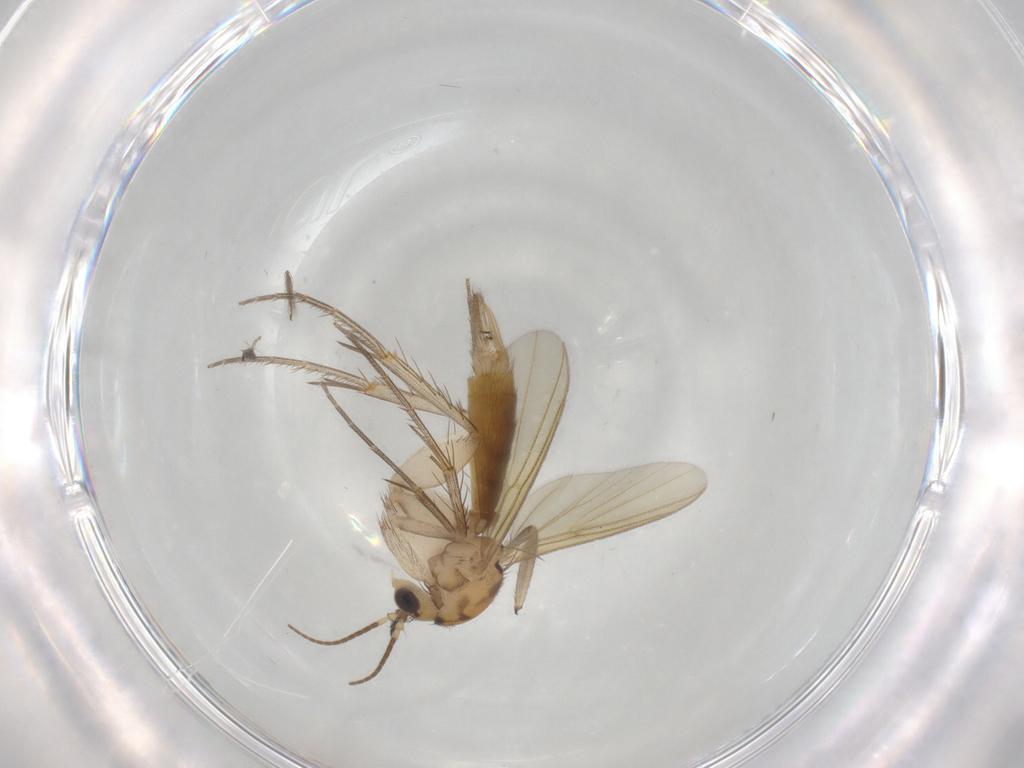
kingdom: Animalia
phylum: Arthropoda
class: Insecta
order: Diptera
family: Mycetophilidae
